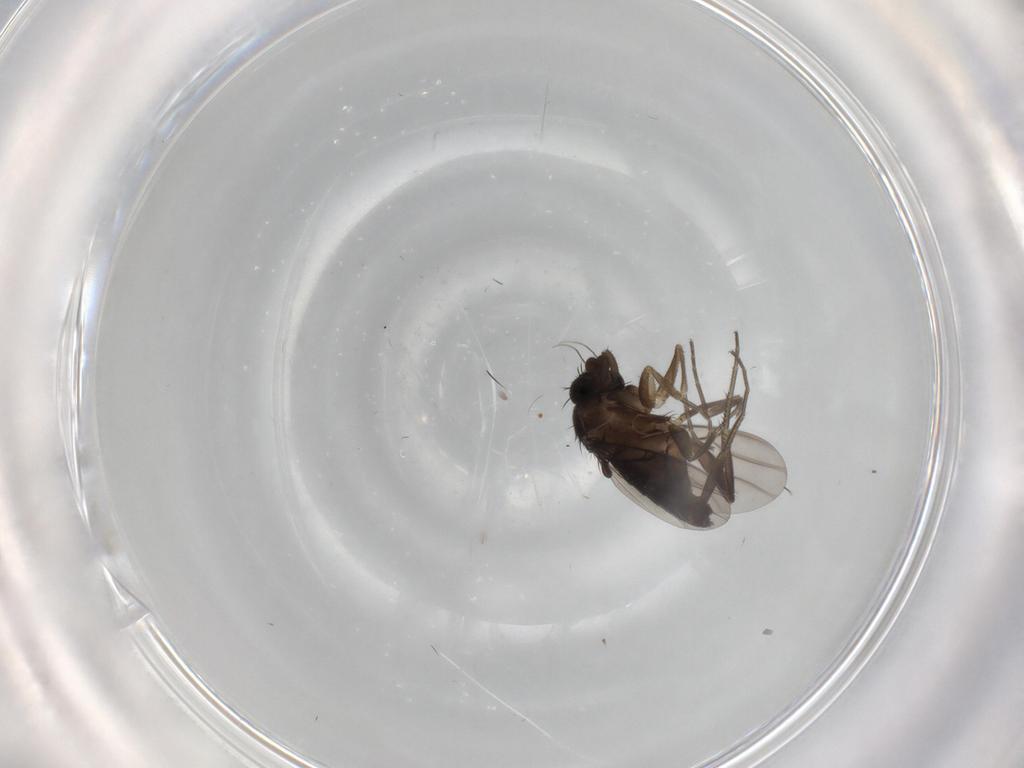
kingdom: Animalia
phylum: Arthropoda
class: Insecta
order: Diptera
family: Phoridae
